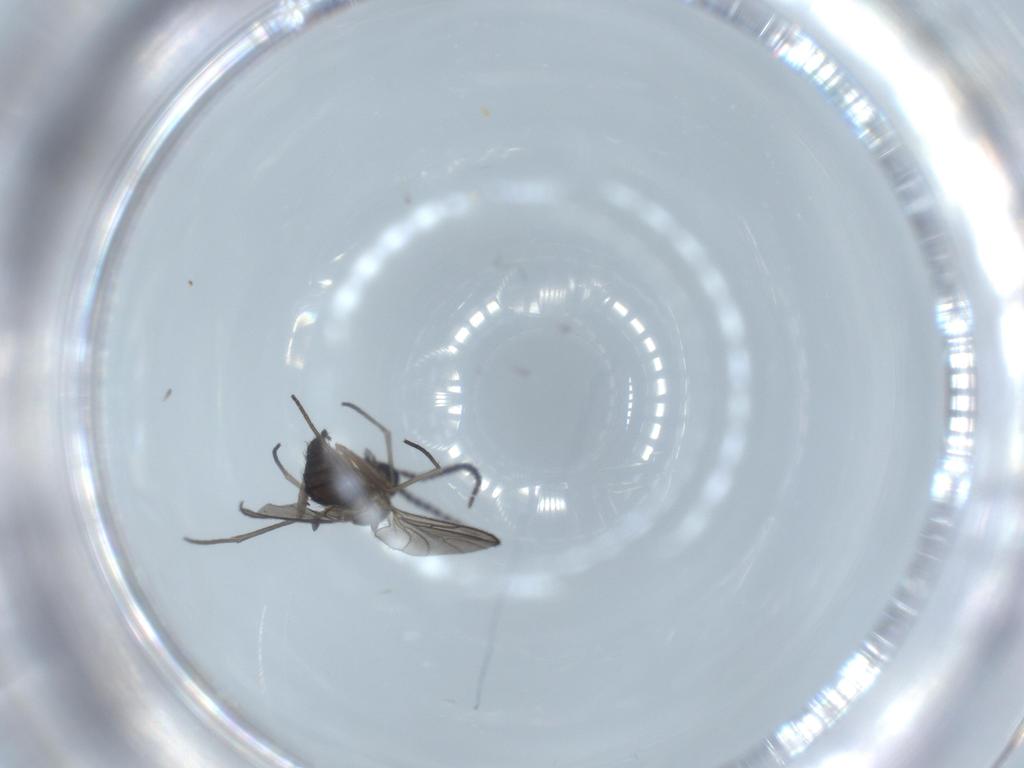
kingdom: Animalia
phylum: Arthropoda
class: Insecta
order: Diptera
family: Sciaridae
